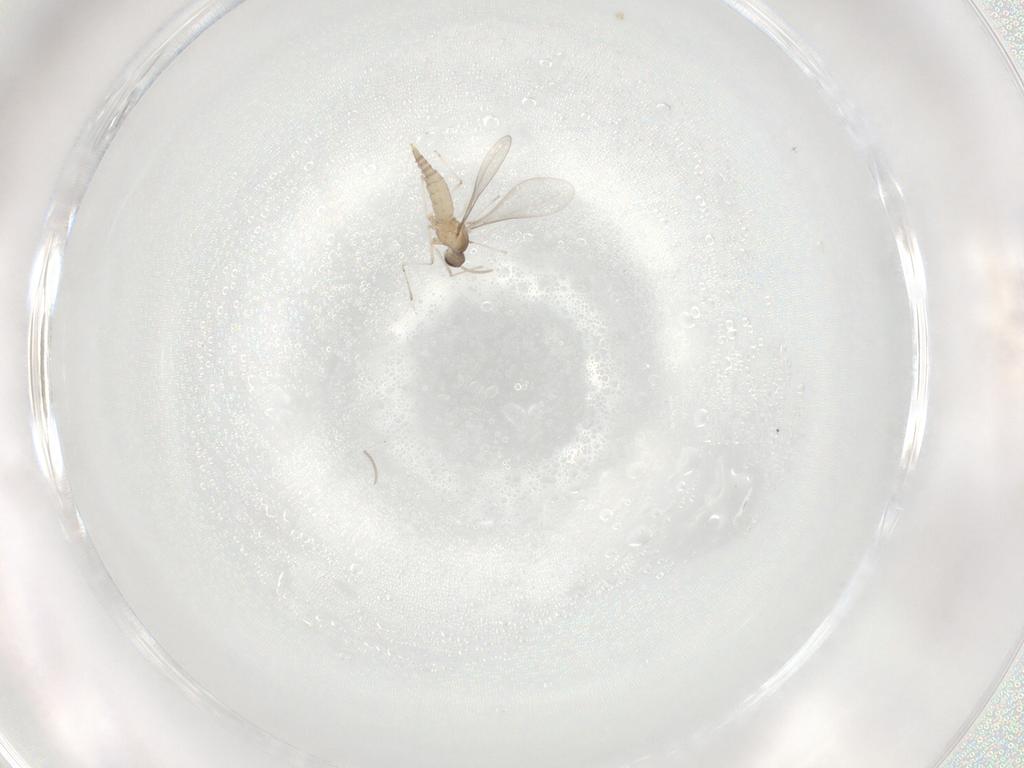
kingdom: Animalia
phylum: Arthropoda
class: Insecta
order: Diptera
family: Cecidomyiidae
